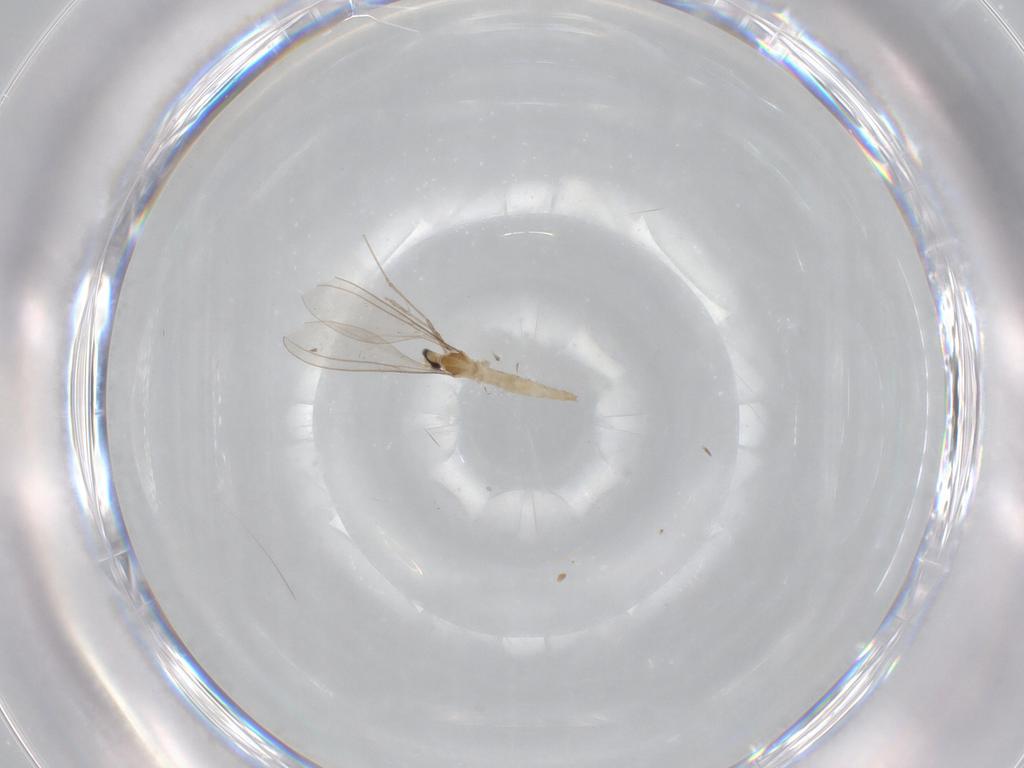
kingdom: Animalia
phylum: Arthropoda
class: Insecta
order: Diptera
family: Cecidomyiidae
